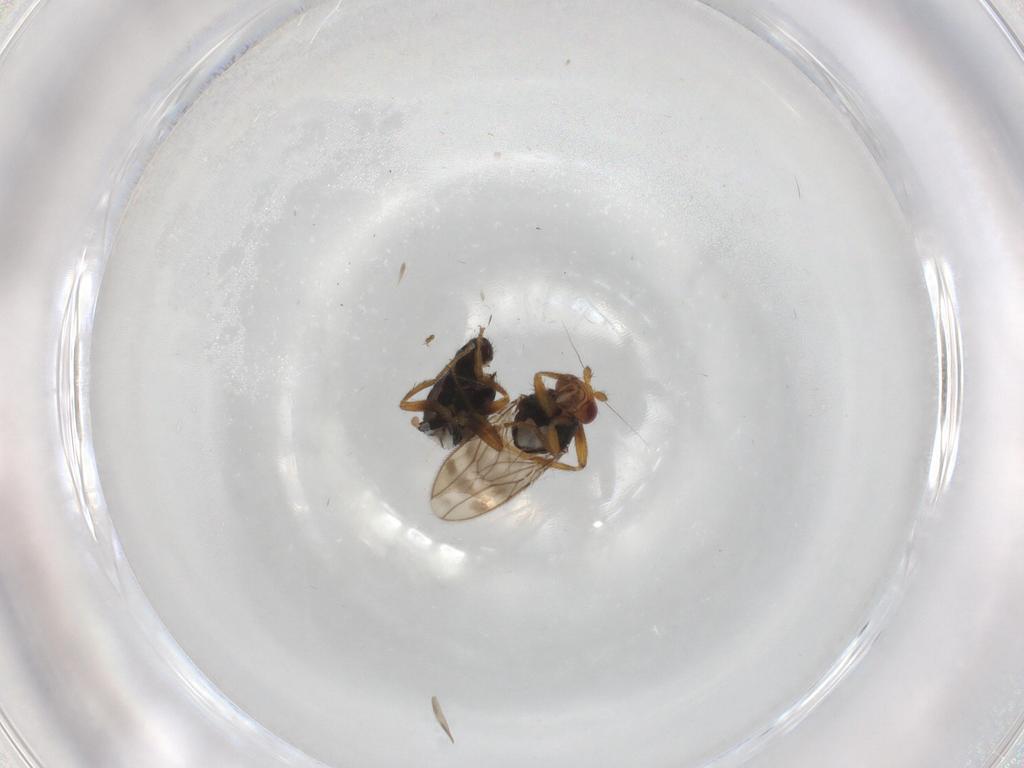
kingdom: Animalia
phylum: Arthropoda
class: Insecta
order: Diptera
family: Sphaeroceridae
